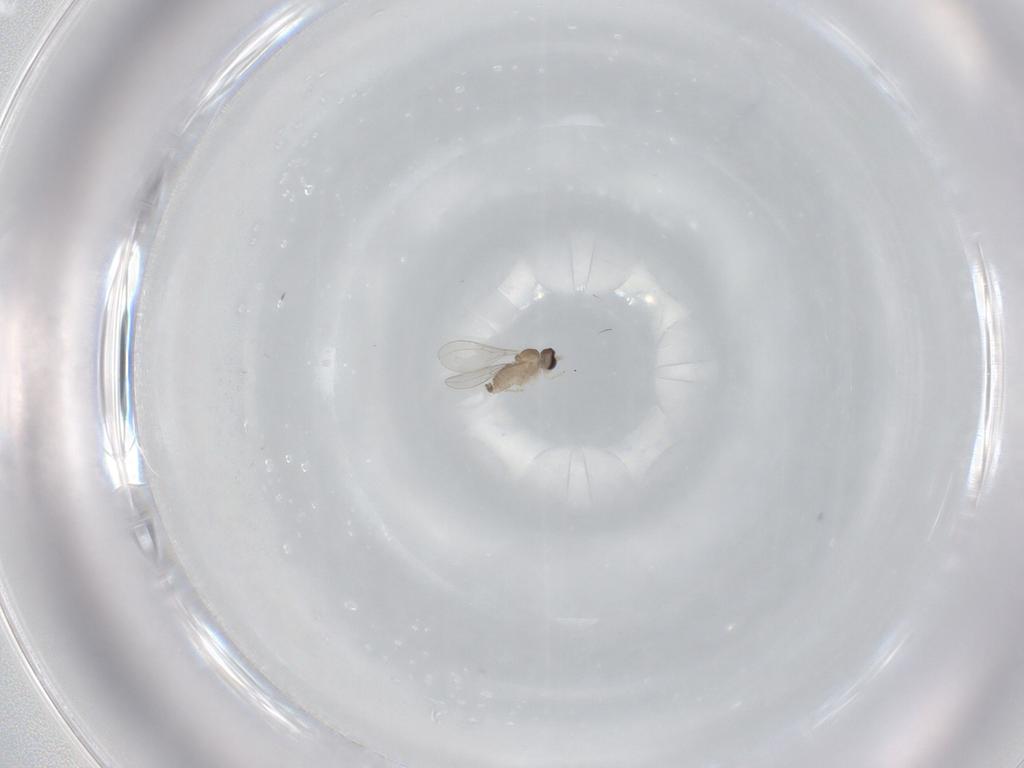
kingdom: Animalia
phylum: Arthropoda
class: Insecta
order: Diptera
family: Cecidomyiidae
